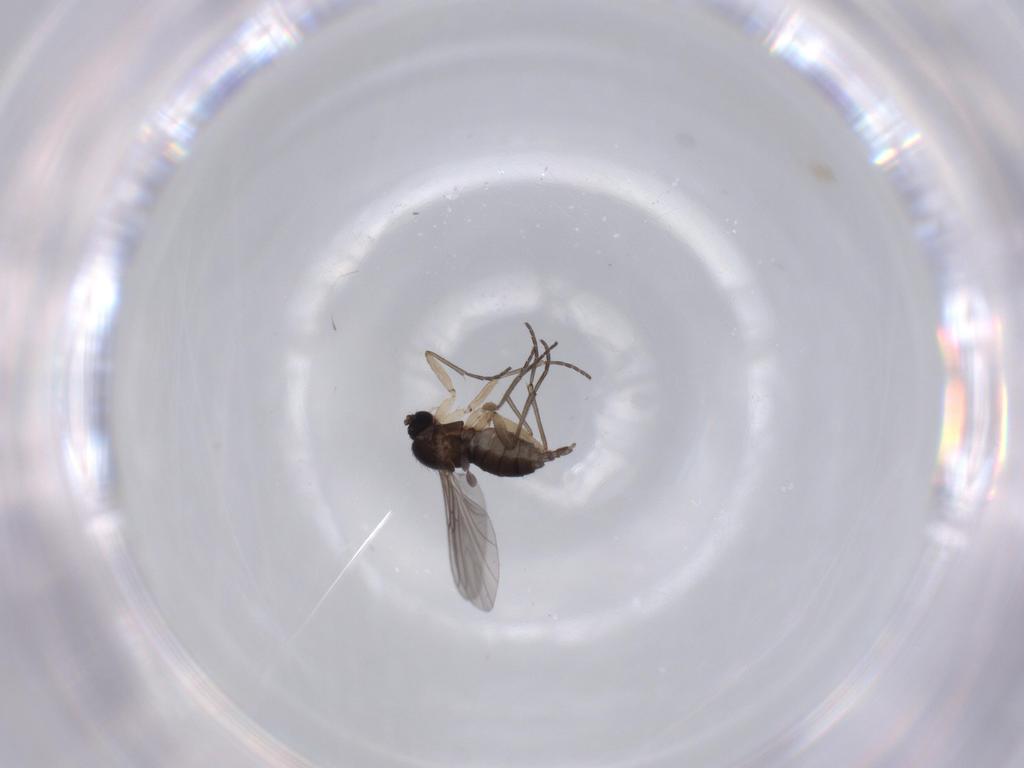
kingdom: Animalia
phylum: Arthropoda
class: Insecta
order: Diptera
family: Sciaridae
